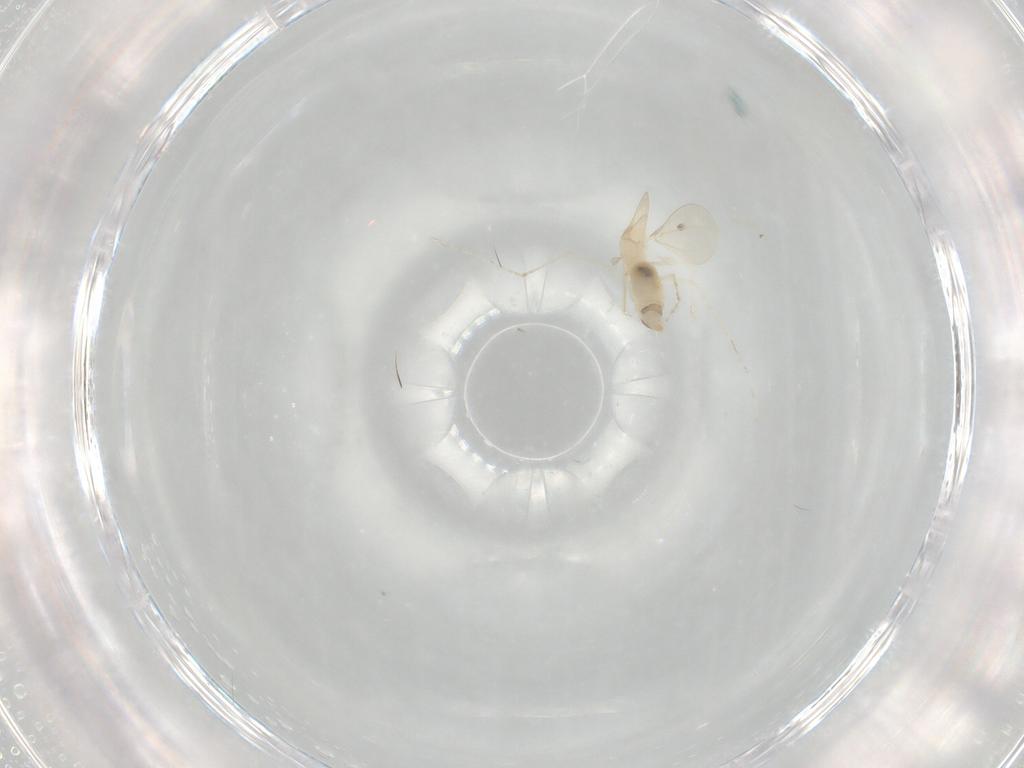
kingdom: Animalia
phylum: Arthropoda
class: Insecta
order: Diptera
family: Cecidomyiidae
